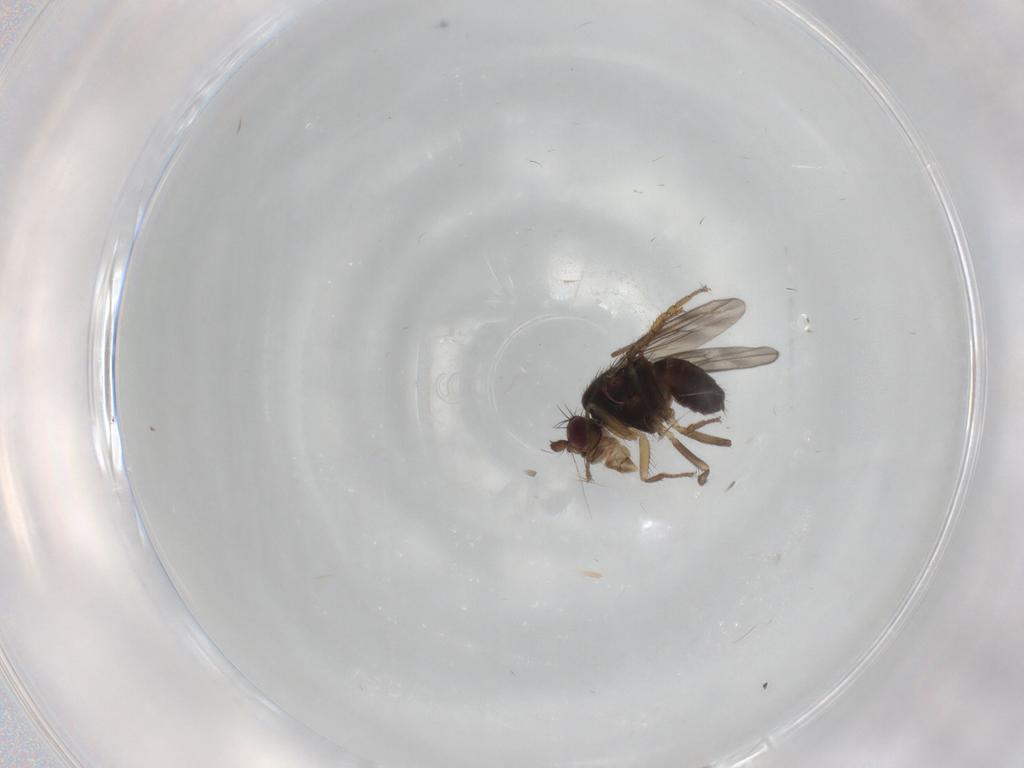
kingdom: Animalia
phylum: Arthropoda
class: Insecta
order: Diptera
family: Sphaeroceridae
